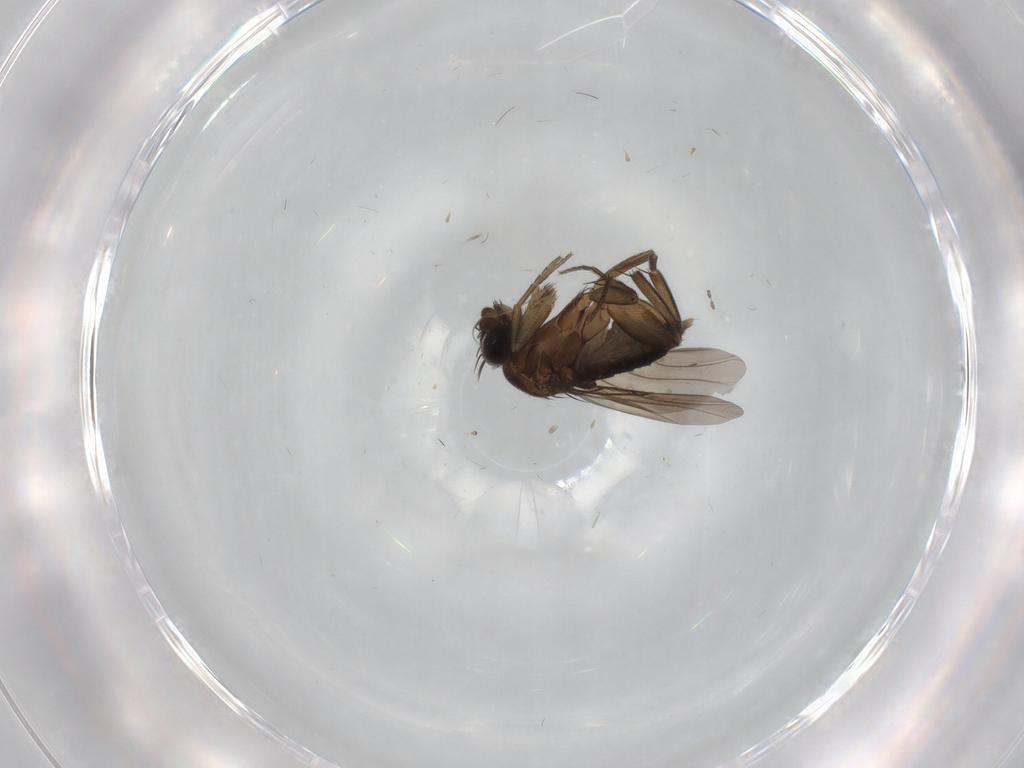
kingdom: Animalia
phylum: Arthropoda
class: Insecta
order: Diptera
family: Phoridae
